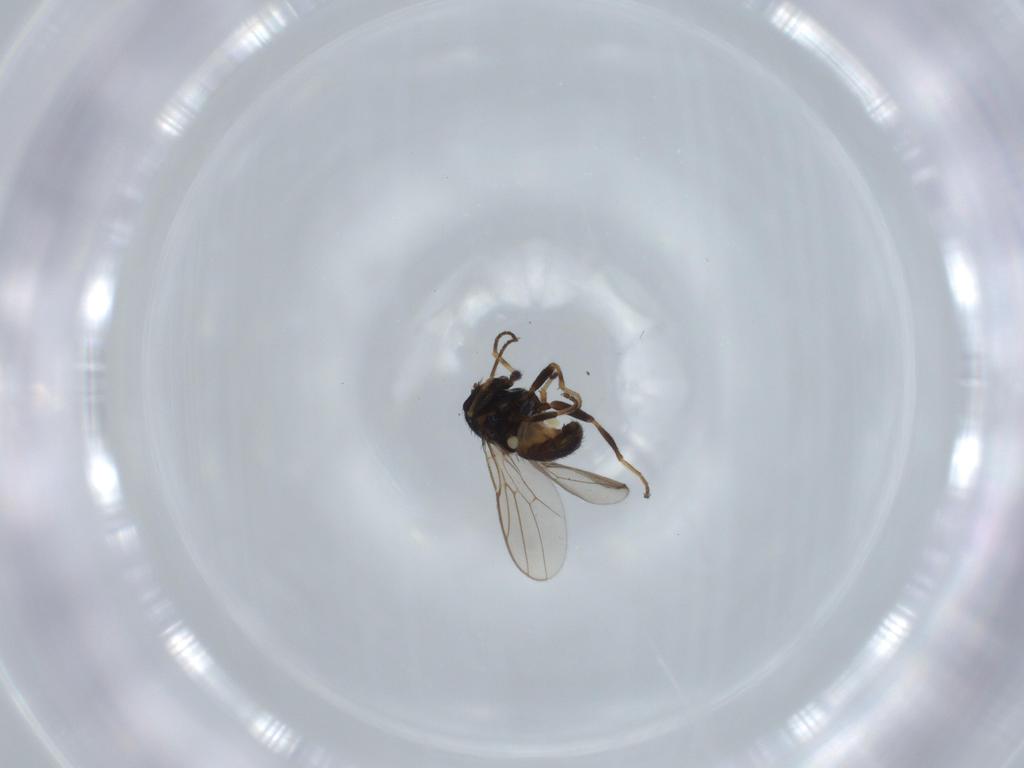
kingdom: Animalia
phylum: Arthropoda
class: Insecta
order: Diptera
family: Chloropidae
